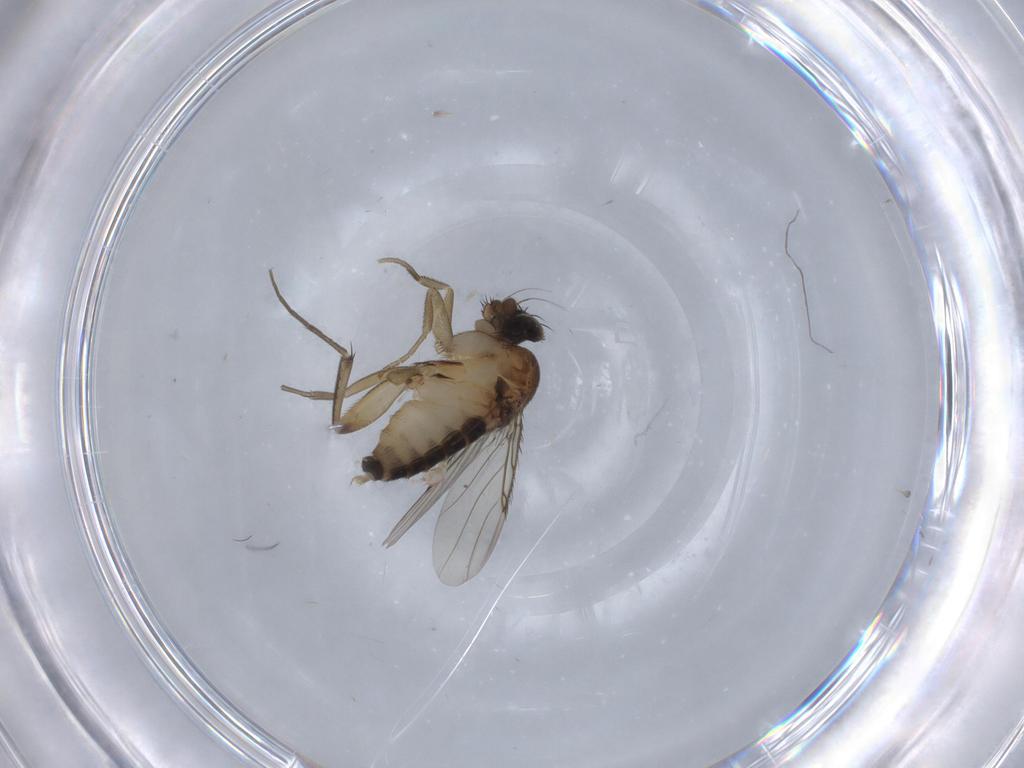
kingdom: Animalia
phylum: Arthropoda
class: Insecta
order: Diptera
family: Phoridae
